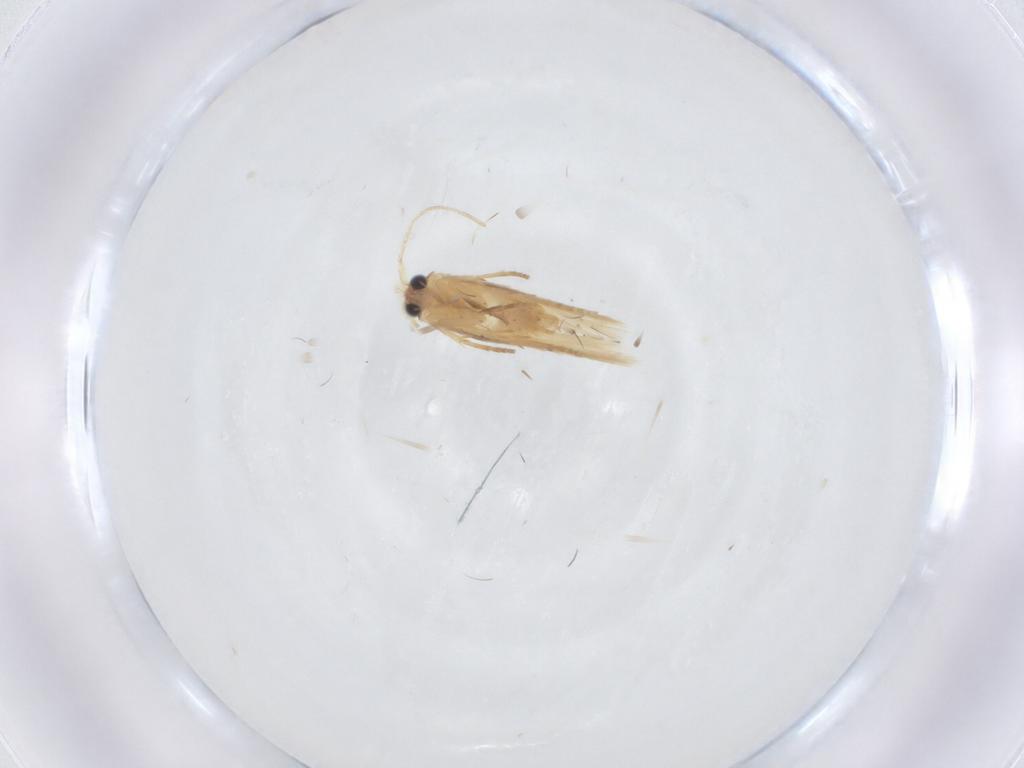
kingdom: Animalia
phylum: Arthropoda
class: Insecta
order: Lepidoptera
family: Nepticulidae
